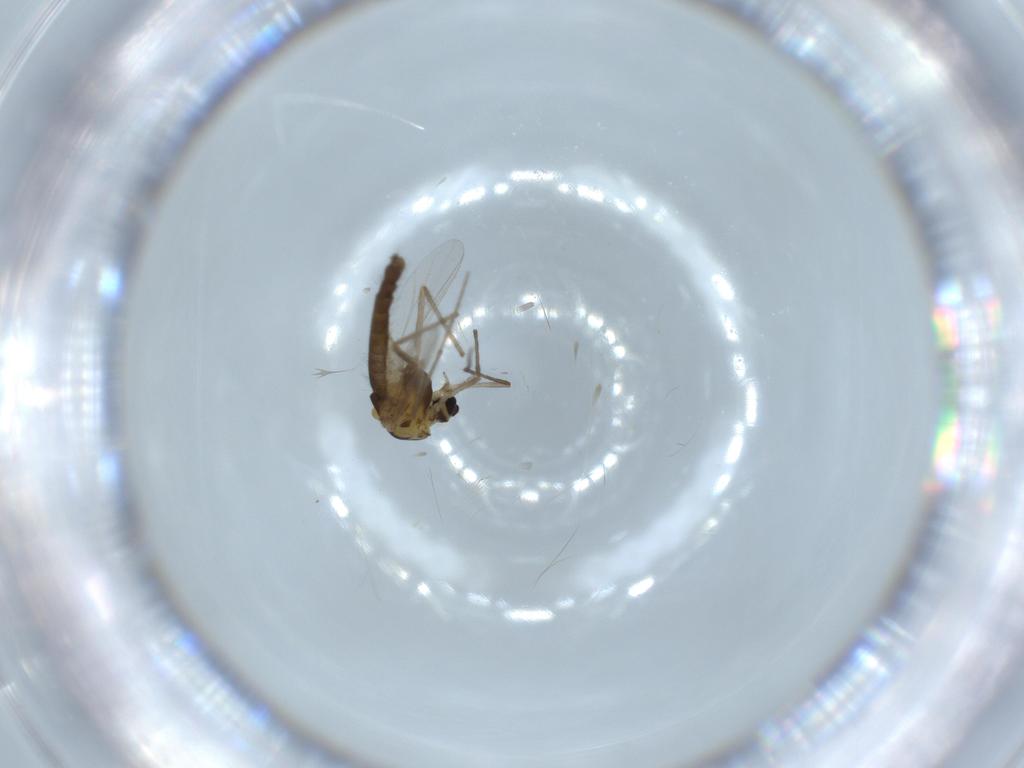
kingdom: Animalia
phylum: Arthropoda
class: Insecta
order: Diptera
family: Chironomidae
